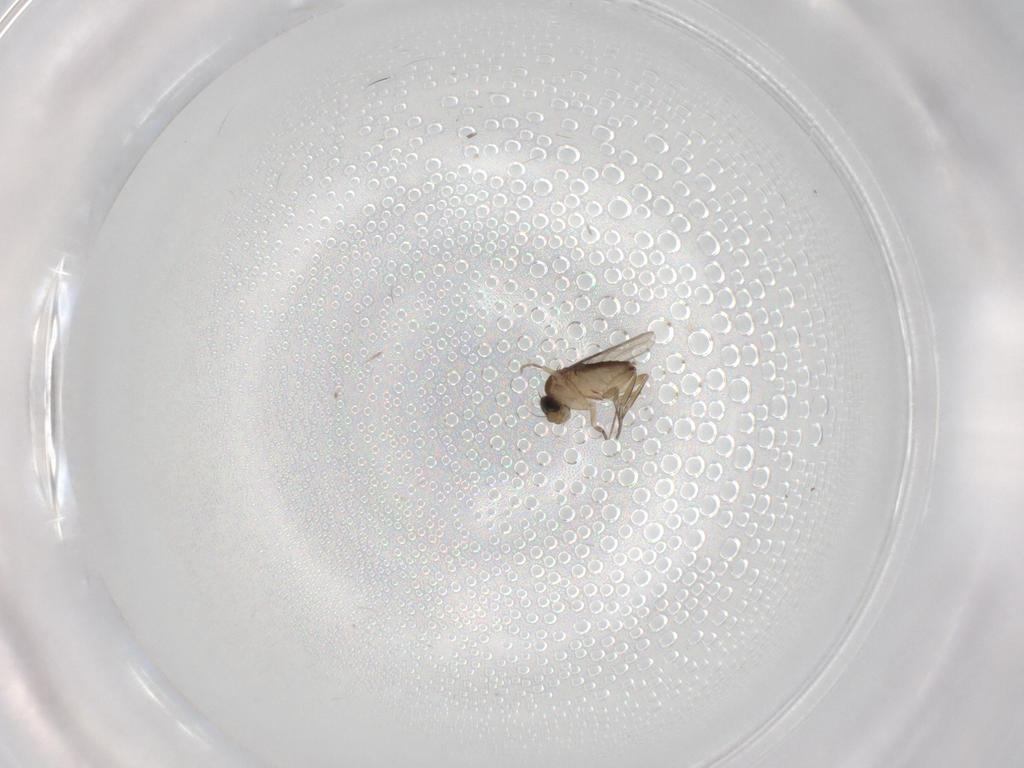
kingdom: Animalia
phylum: Arthropoda
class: Insecta
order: Diptera
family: Phoridae
